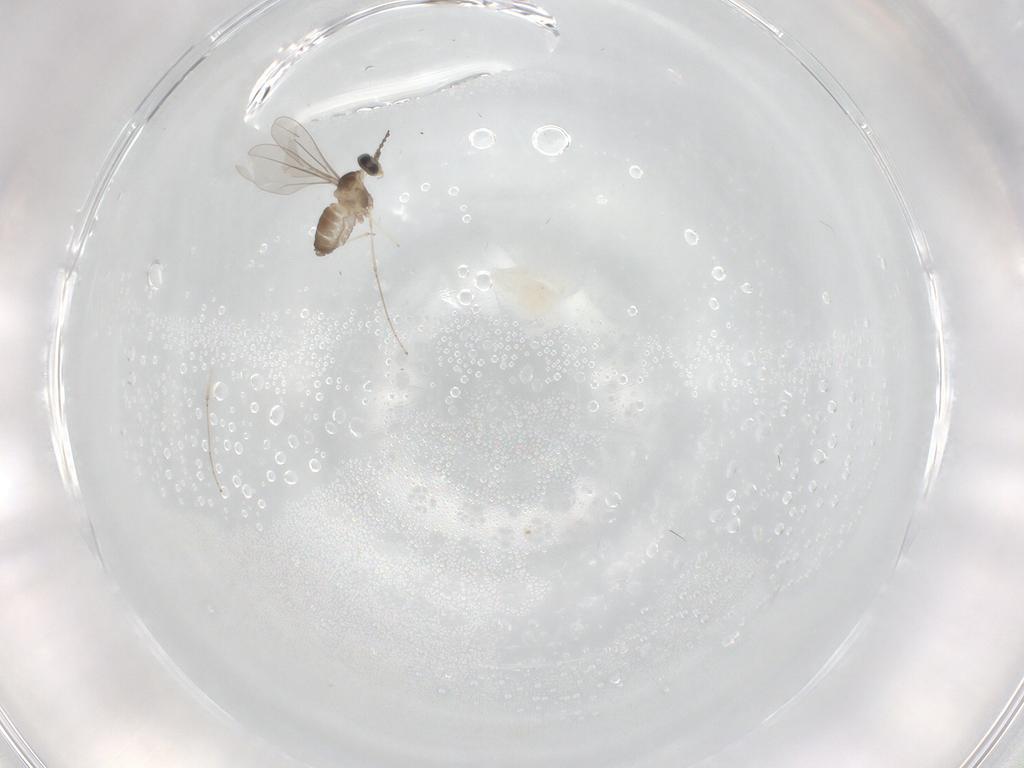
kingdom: Animalia
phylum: Arthropoda
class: Insecta
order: Diptera
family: Cecidomyiidae
